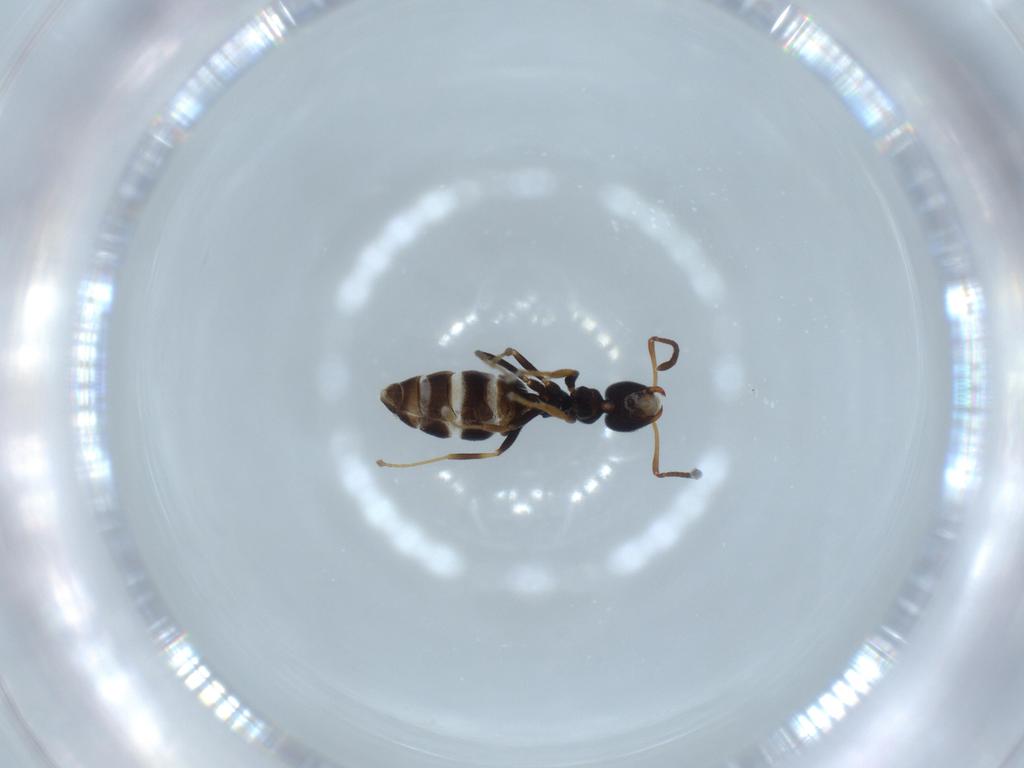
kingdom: Animalia
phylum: Arthropoda
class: Insecta
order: Hymenoptera
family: Formicidae
